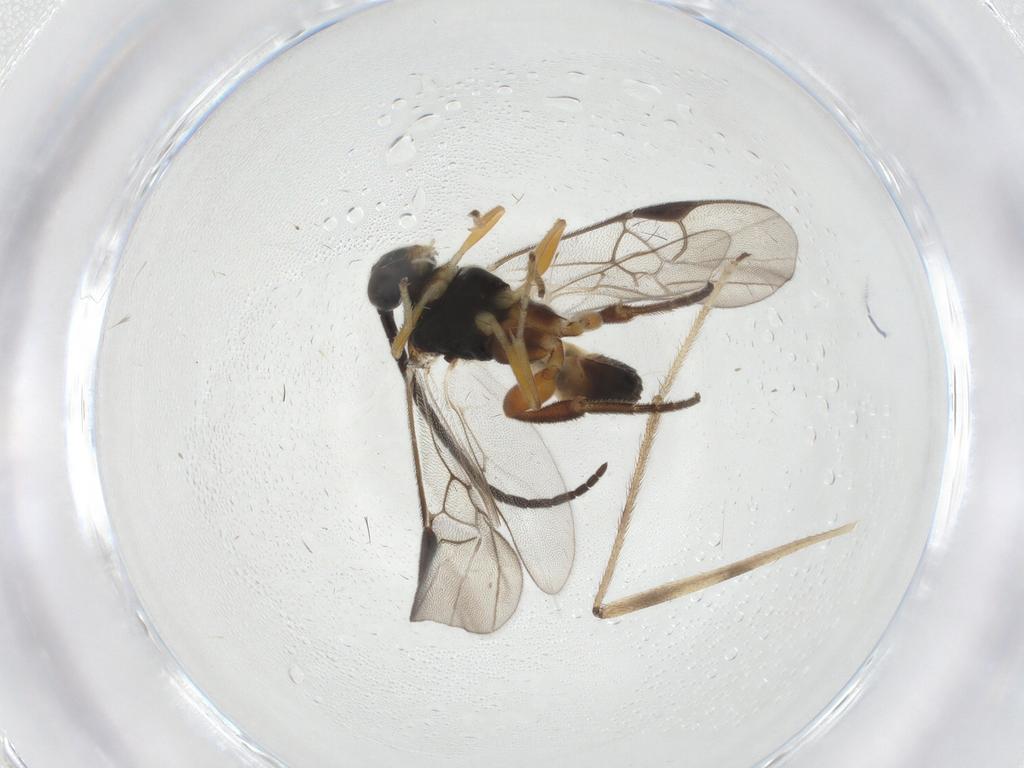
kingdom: Animalia
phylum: Arthropoda
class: Insecta
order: Hymenoptera
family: Braconidae
